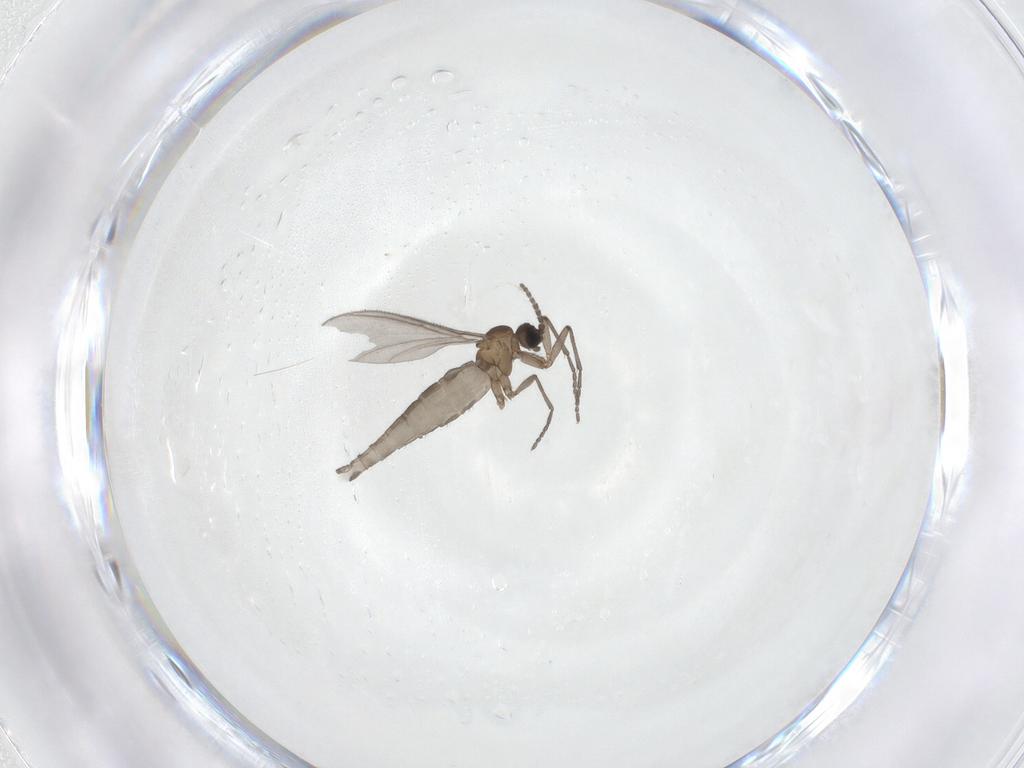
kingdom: Animalia
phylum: Arthropoda
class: Insecta
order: Diptera
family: Sciaridae
